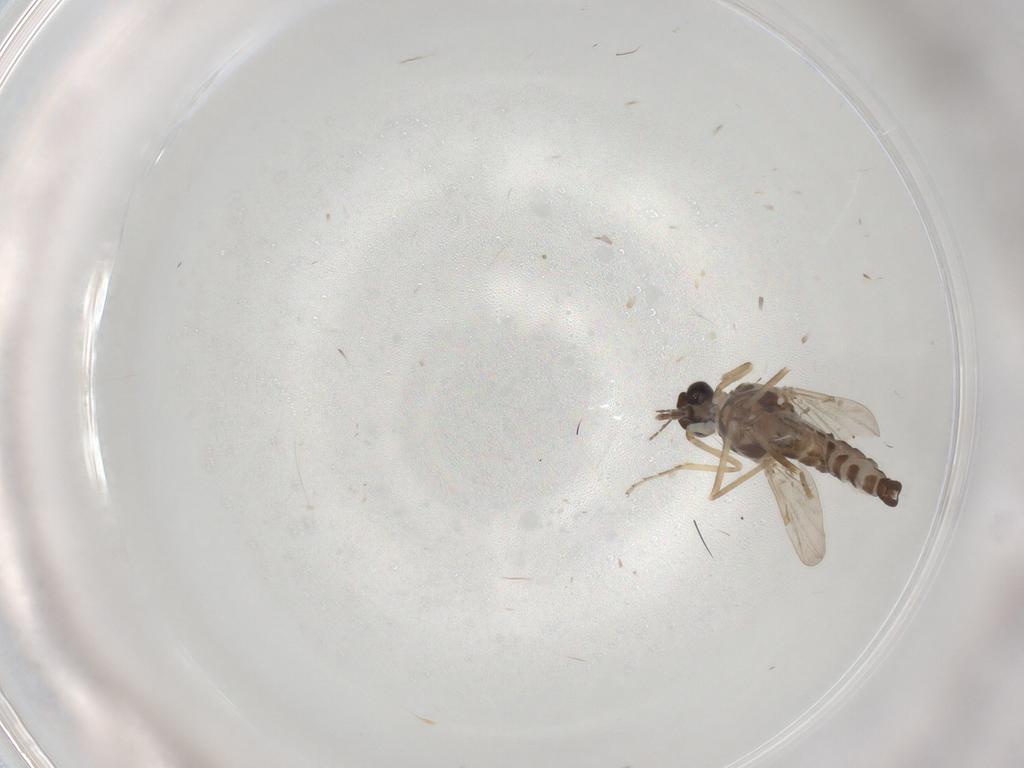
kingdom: Animalia
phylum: Arthropoda
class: Insecta
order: Diptera
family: Ceratopogonidae
